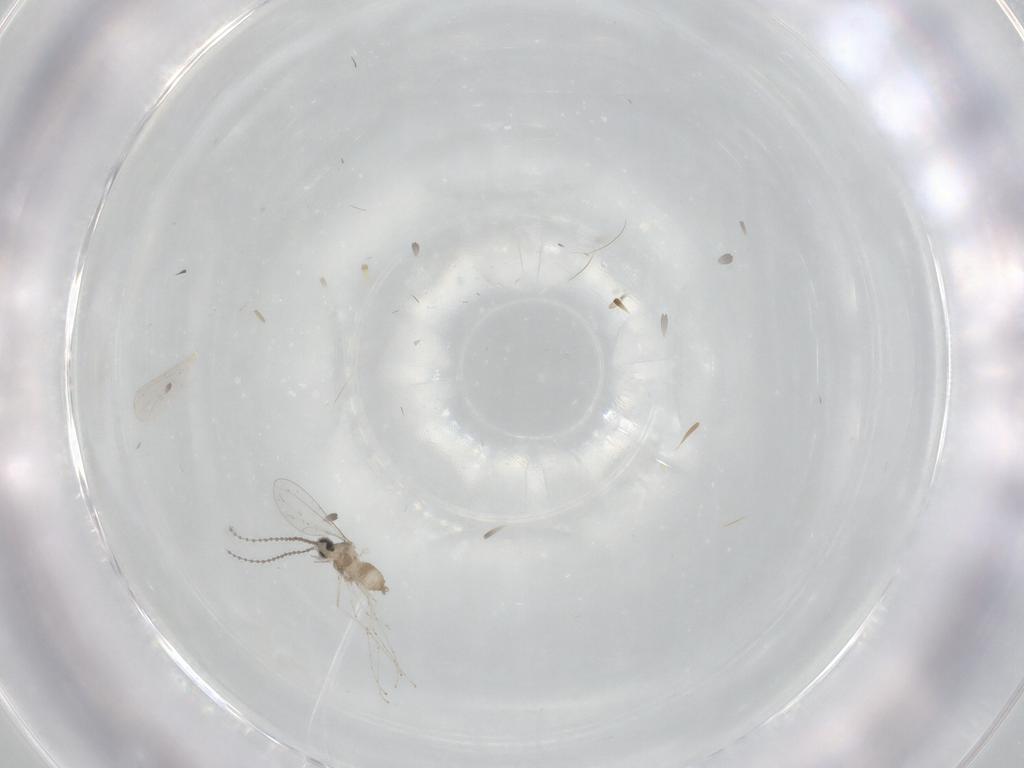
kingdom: Animalia
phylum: Arthropoda
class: Insecta
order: Diptera
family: Cecidomyiidae
